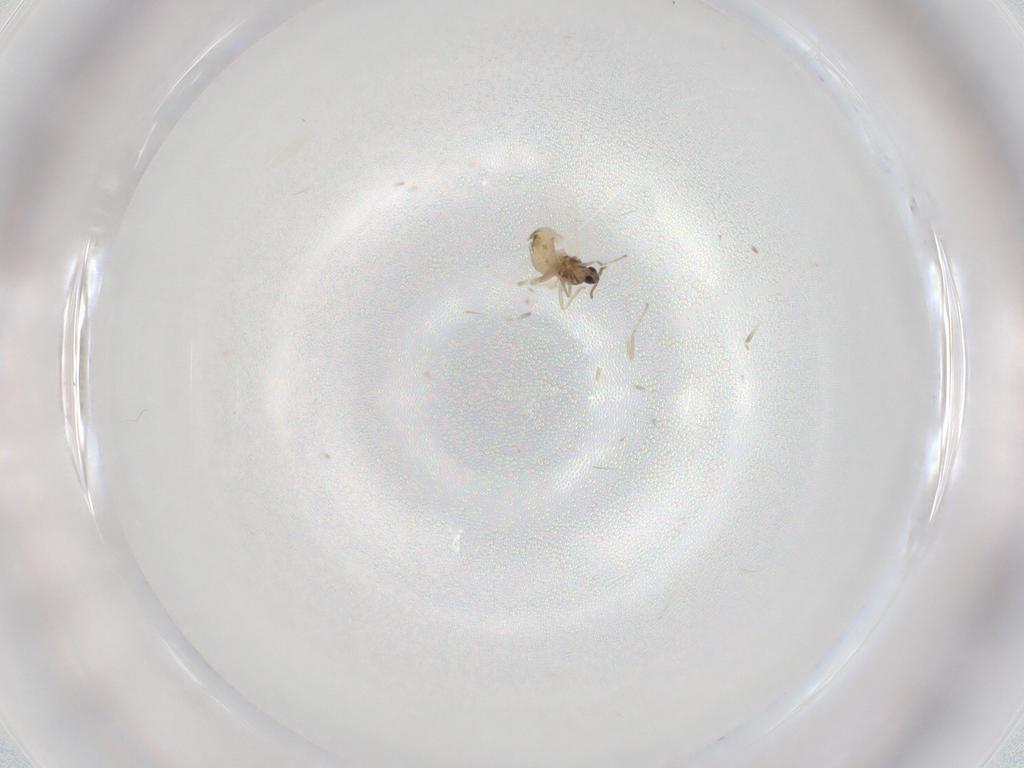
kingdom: Animalia
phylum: Arthropoda
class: Insecta
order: Diptera
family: Cecidomyiidae
